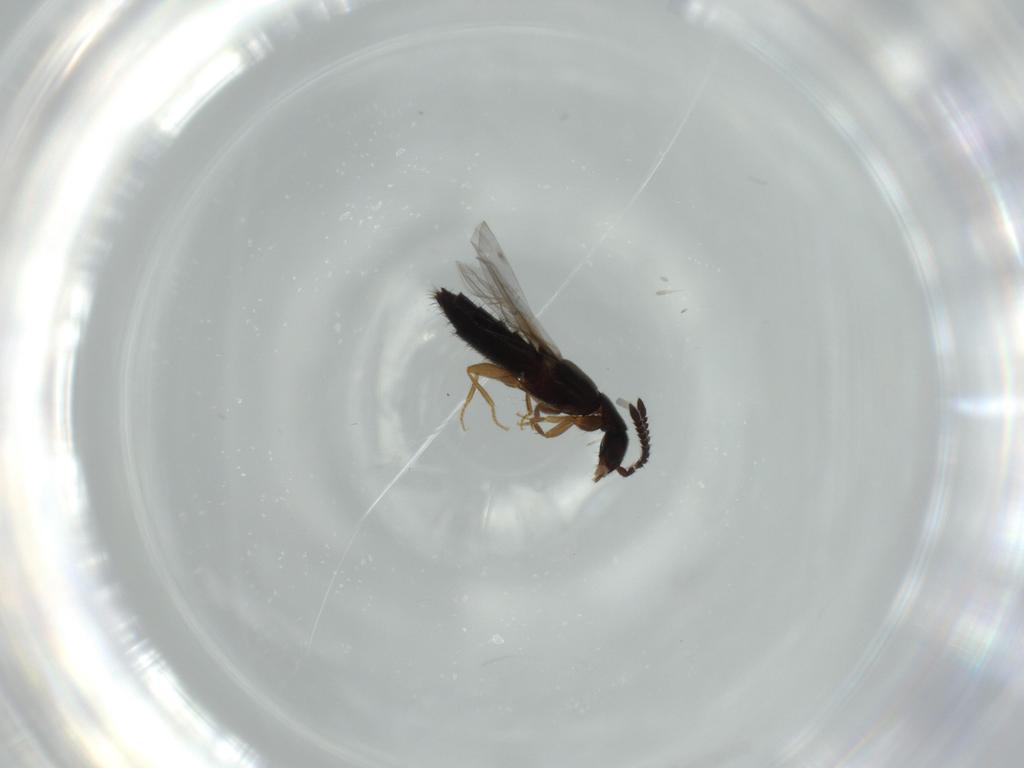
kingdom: Animalia
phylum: Arthropoda
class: Insecta
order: Coleoptera
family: Staphylinidae
